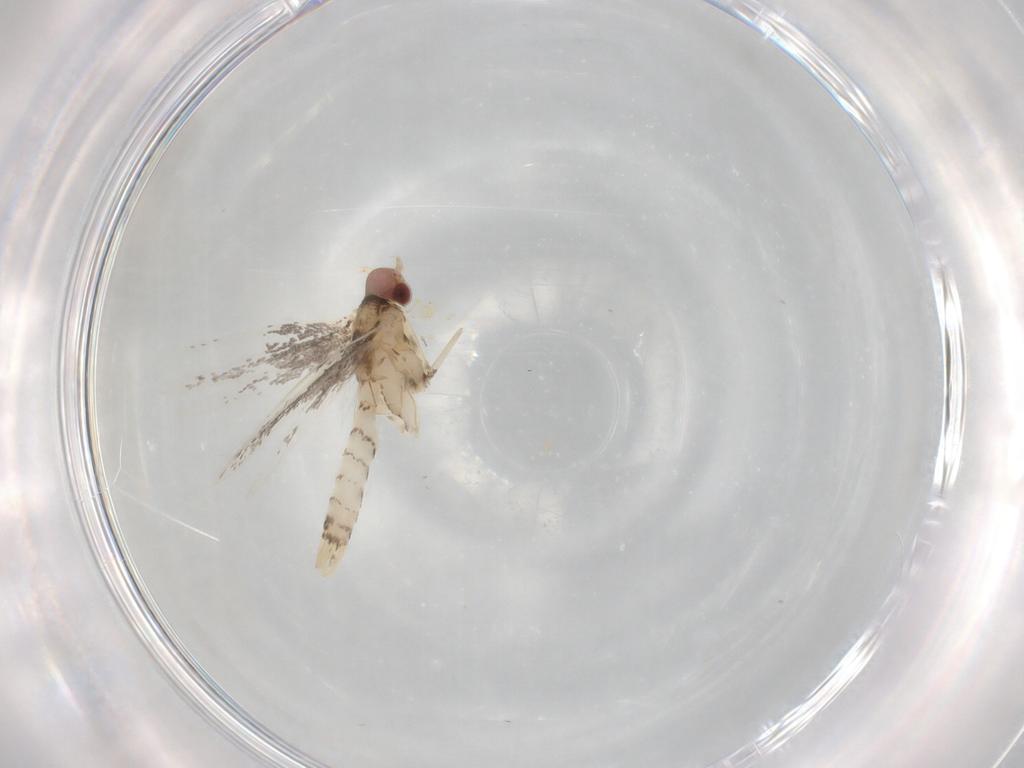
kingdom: Animalia
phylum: Arthropoda
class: Insecta
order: Lepidoptera
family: Gracillariidae
